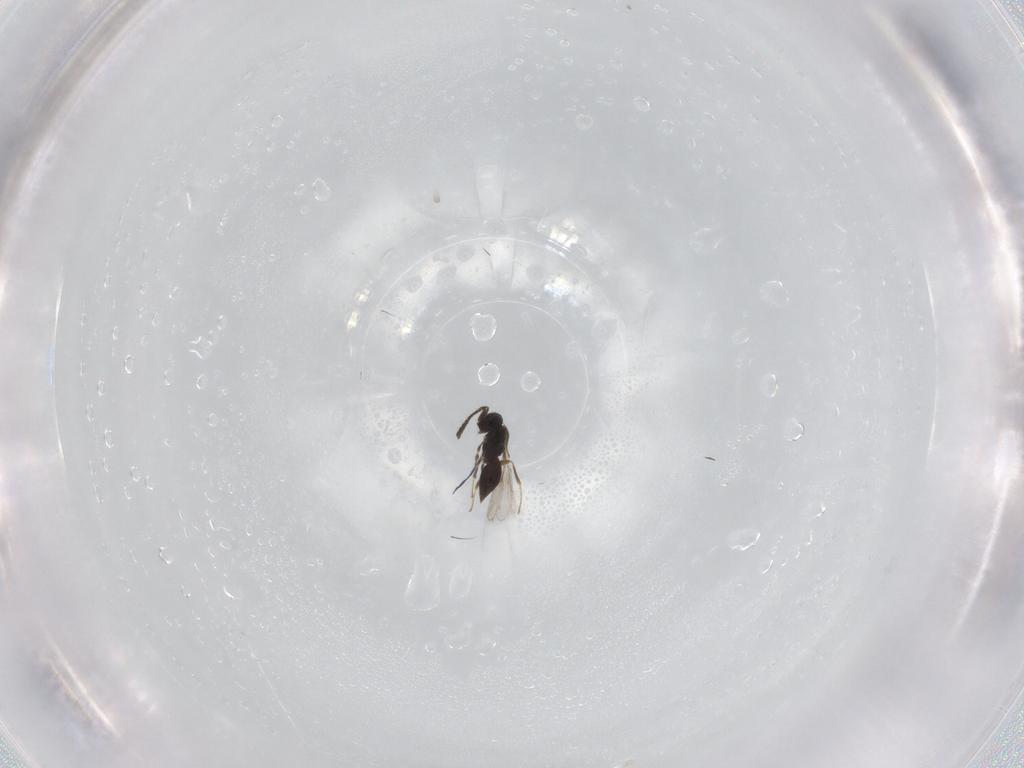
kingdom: Animalia
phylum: Arthropoda
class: Insecta
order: Hymenoptera
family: Scelionidae
